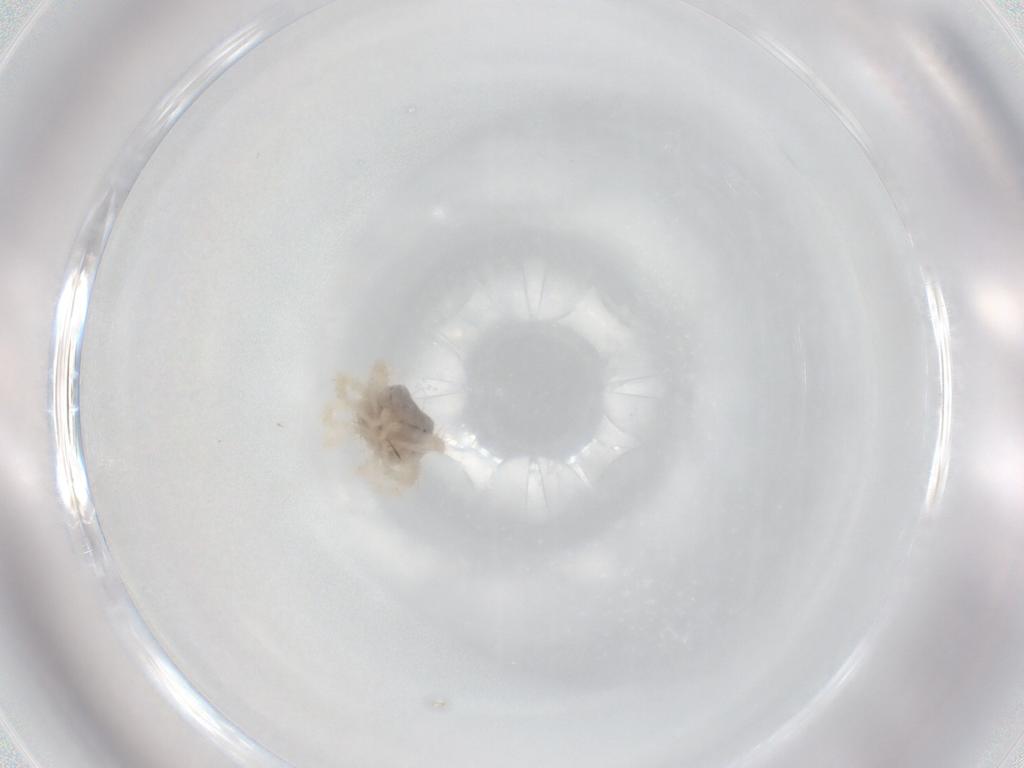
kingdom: Animalia
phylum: Arthropoda
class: Arachnida
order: Trombidiformes
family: Anystidae
